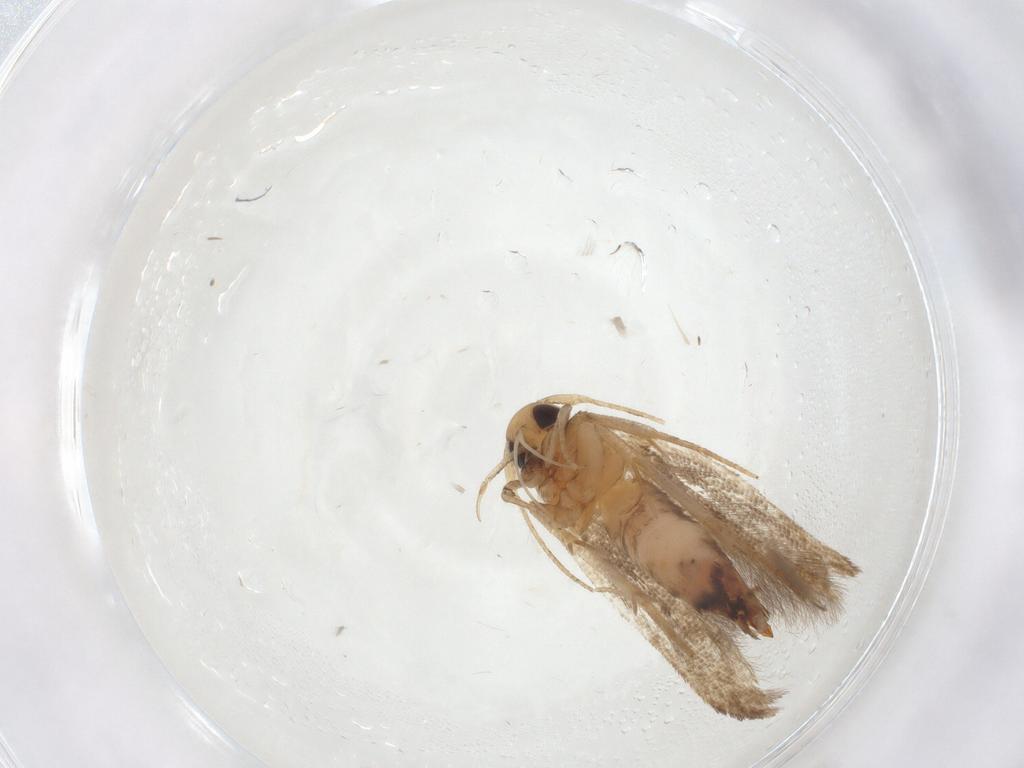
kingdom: Animalia
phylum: Arthropoda
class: Insecta
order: Lepidoptera
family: Cosmopterigidae
